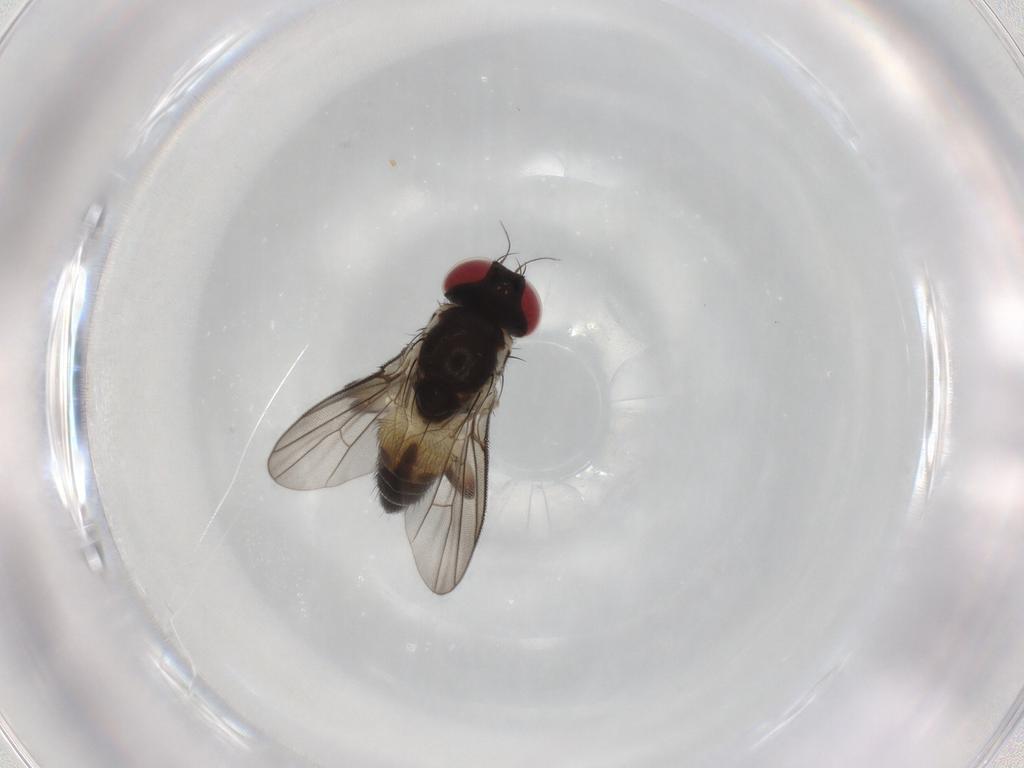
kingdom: Animalia
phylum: Arthropoda
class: Insecta
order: Diptera
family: Agromyzidae
